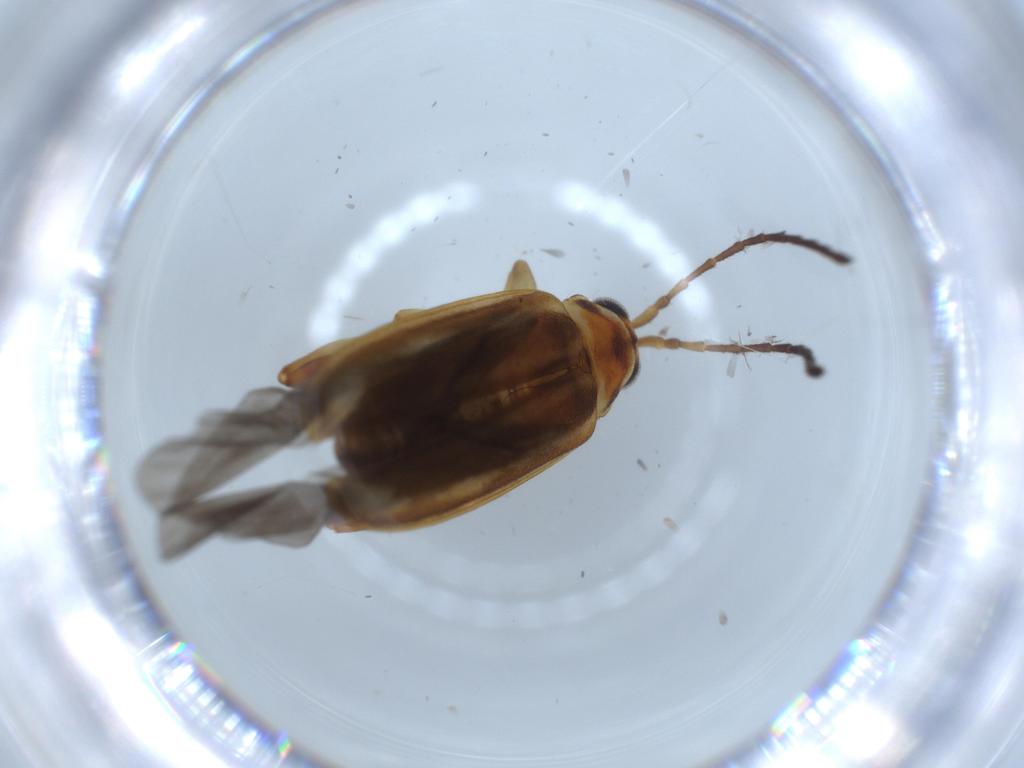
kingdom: Animalia
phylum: Arthropoda
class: Insecta
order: Coleoptera
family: Chrysomelidae
